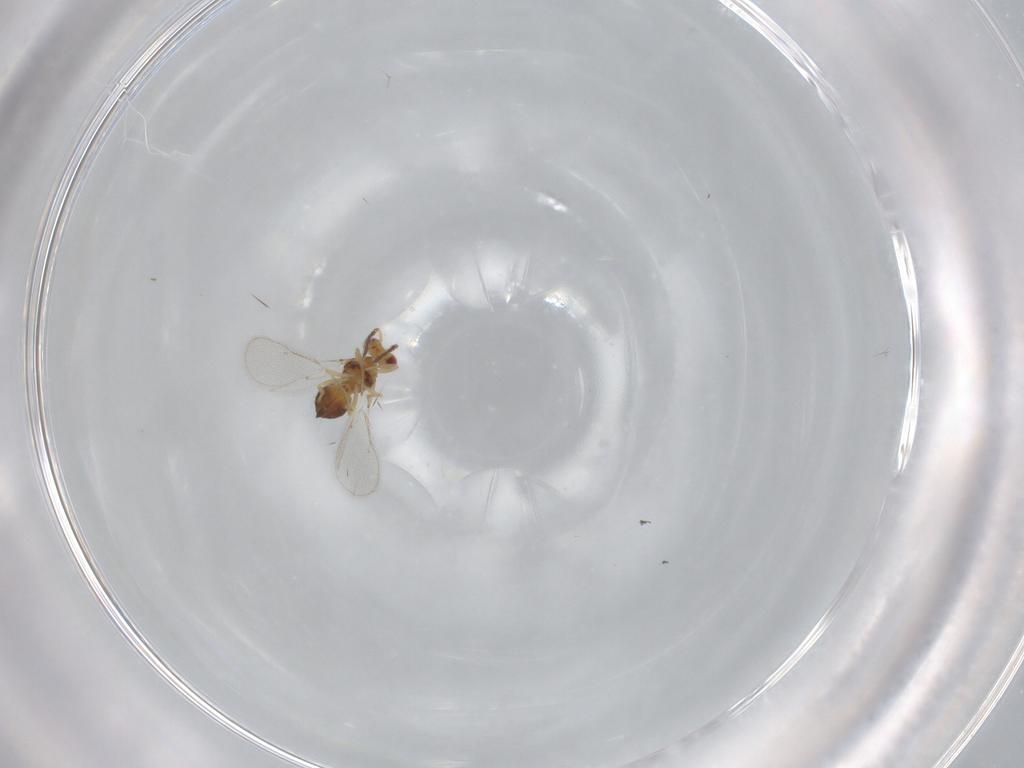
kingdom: Animalia
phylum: Arthropoda
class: Insecta
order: Hymenoptera
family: Eulophidae
